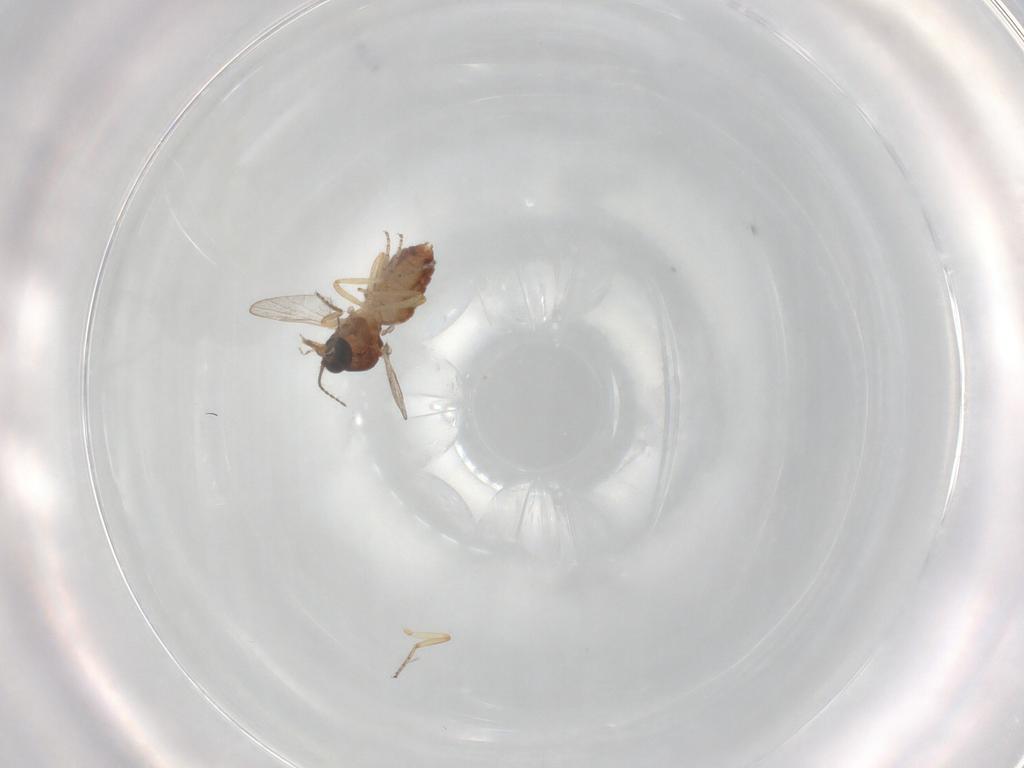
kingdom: Animalia
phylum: Arthropoda
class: Insecta
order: Diptera
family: Ceratopogonidae
